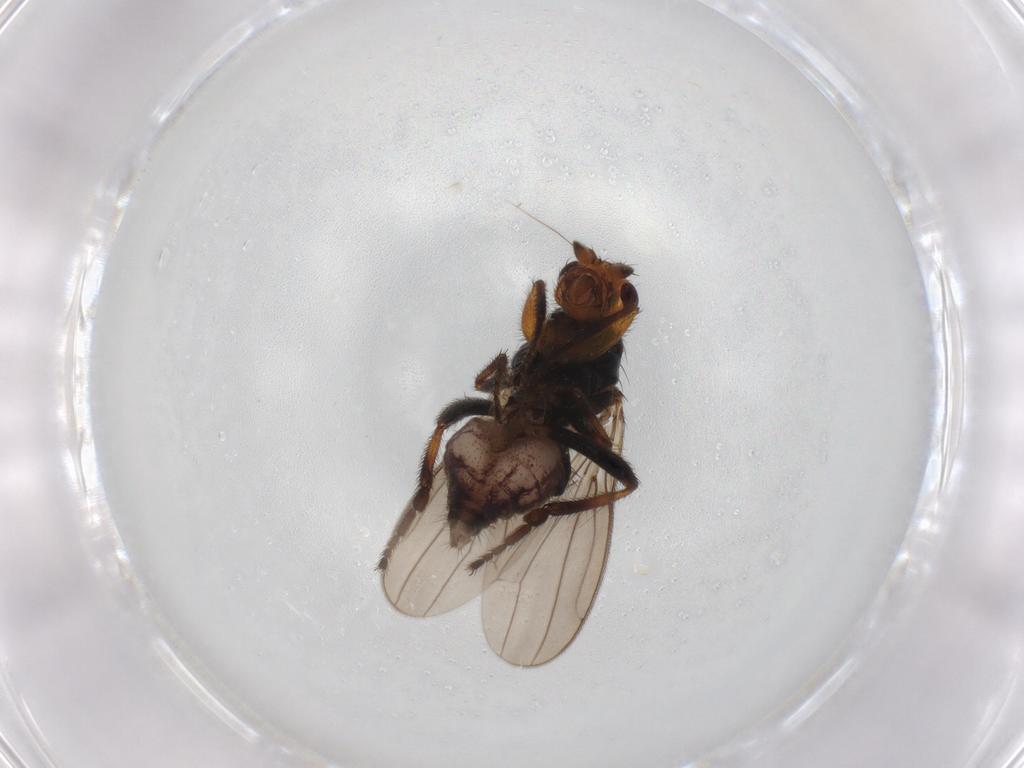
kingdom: Animalia
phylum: Arthropoda
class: Insecta
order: Diptera
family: Sphaeroceridae
